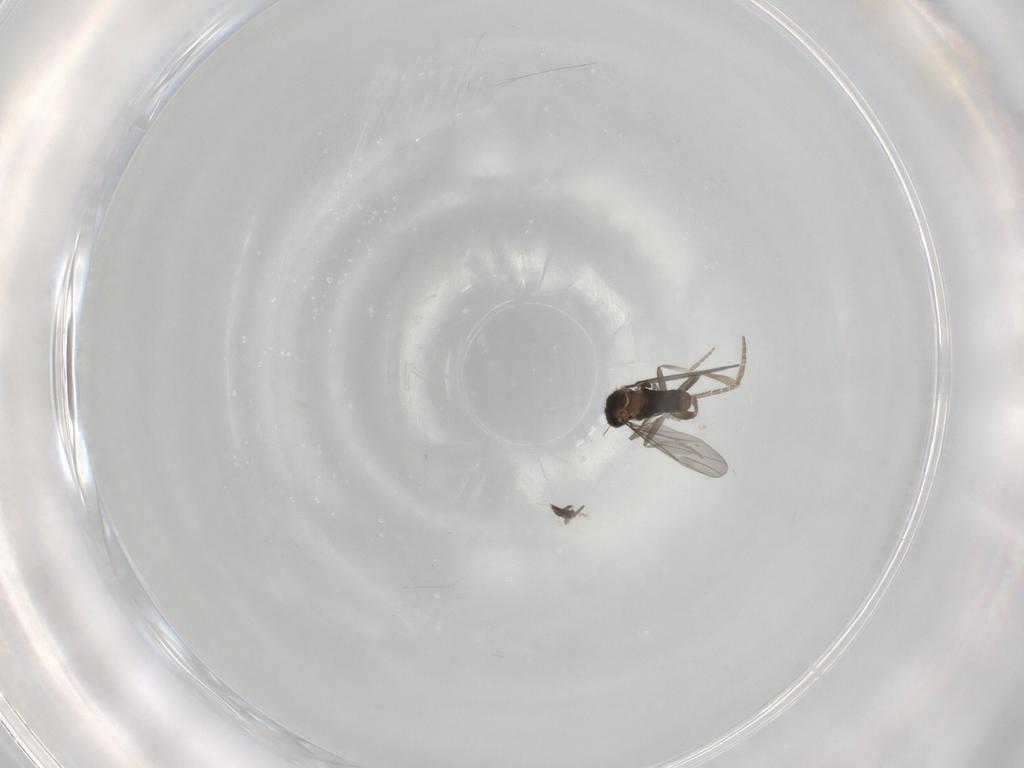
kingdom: Animalia
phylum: Arthropoda
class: Insecta
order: Diptera
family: Sciaridae
